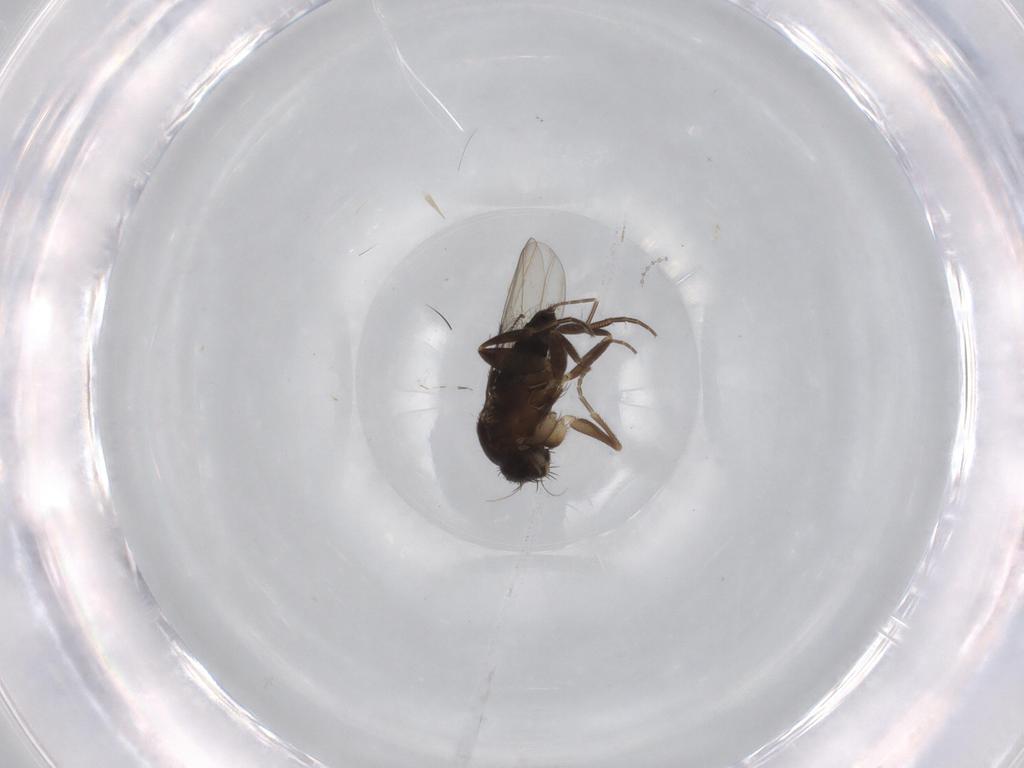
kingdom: Animalia
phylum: Arthropoda
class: Insecta
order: Diptera
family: Phoridae
